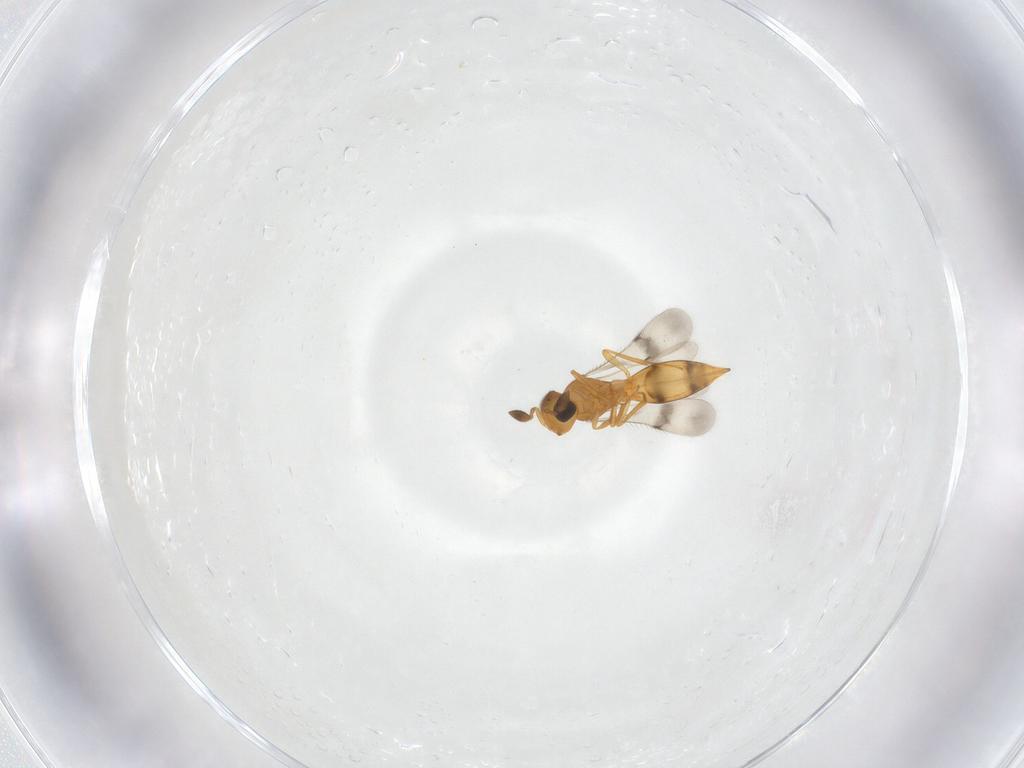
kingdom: Animalia
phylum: Arthropoda
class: Insecta
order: Hymenoptera
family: Scelionidae
